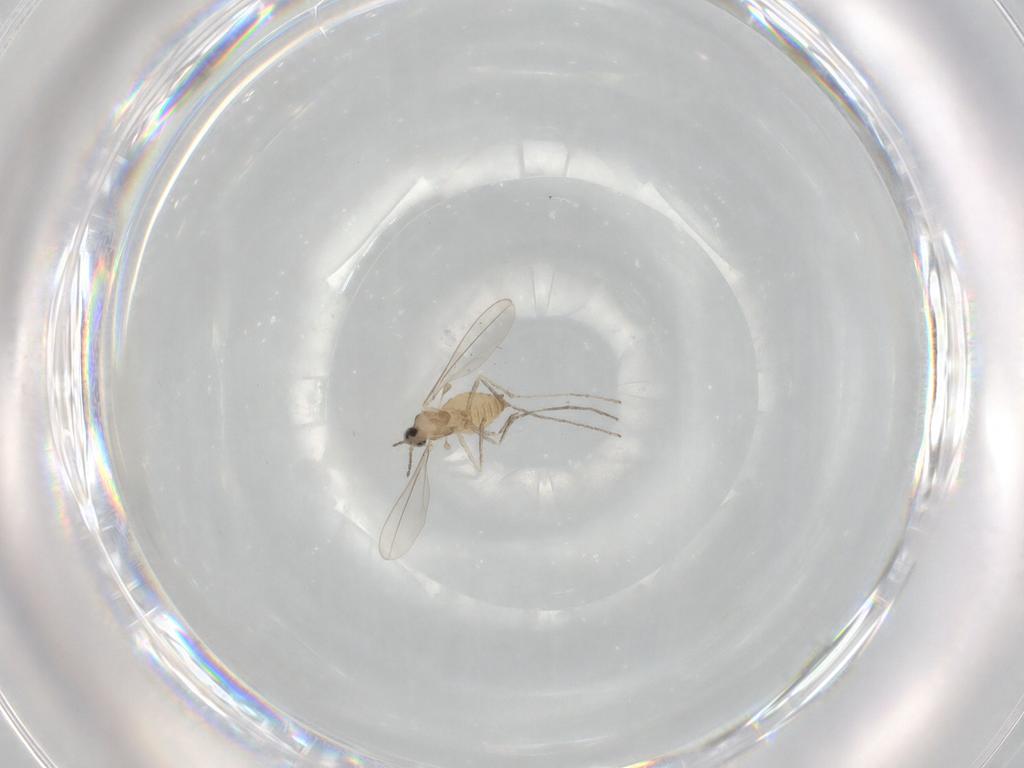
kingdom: Animalia
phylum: Arthropoda
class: Insecta
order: Diptera
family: Cecidomyiidae
